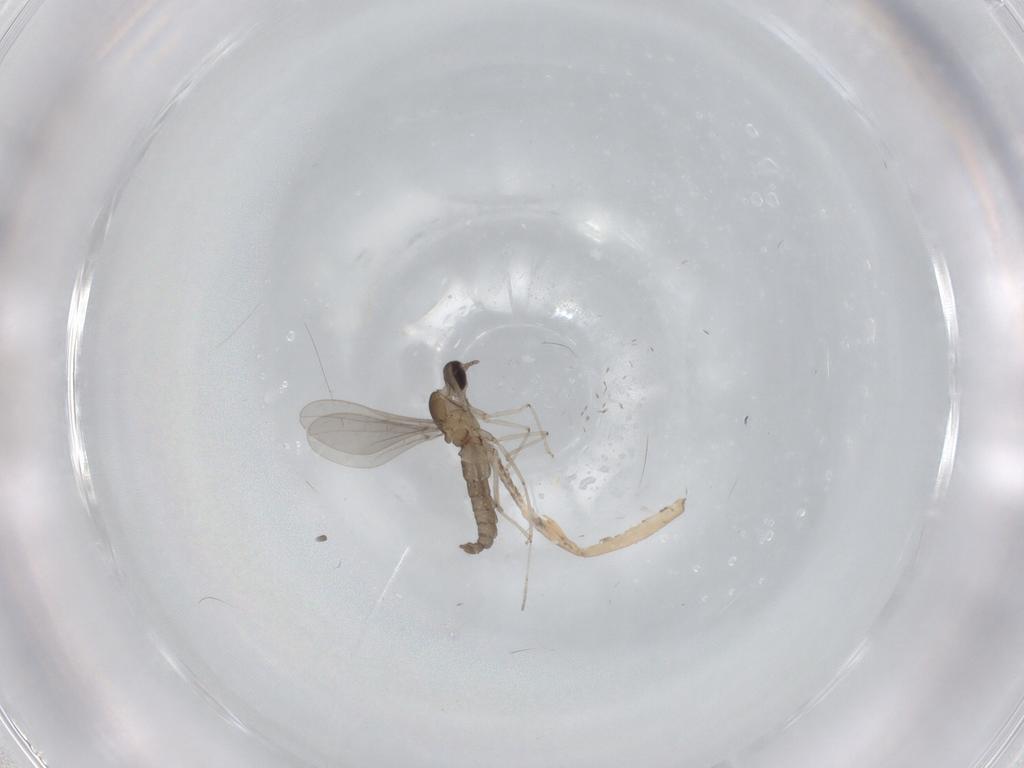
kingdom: Animalia
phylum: Arthropoda
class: Insecta
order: Diptera
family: Cecidomyiidae
